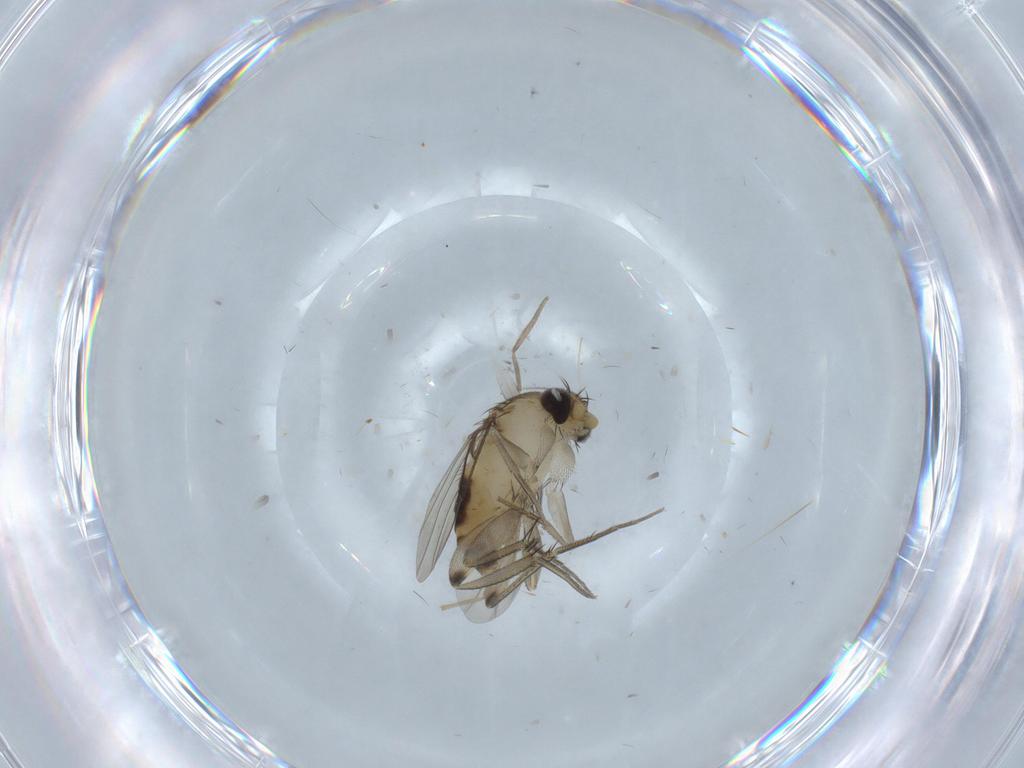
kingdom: Animalia
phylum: Arthropoda
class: Insecta
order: Diptera
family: Phoridae
